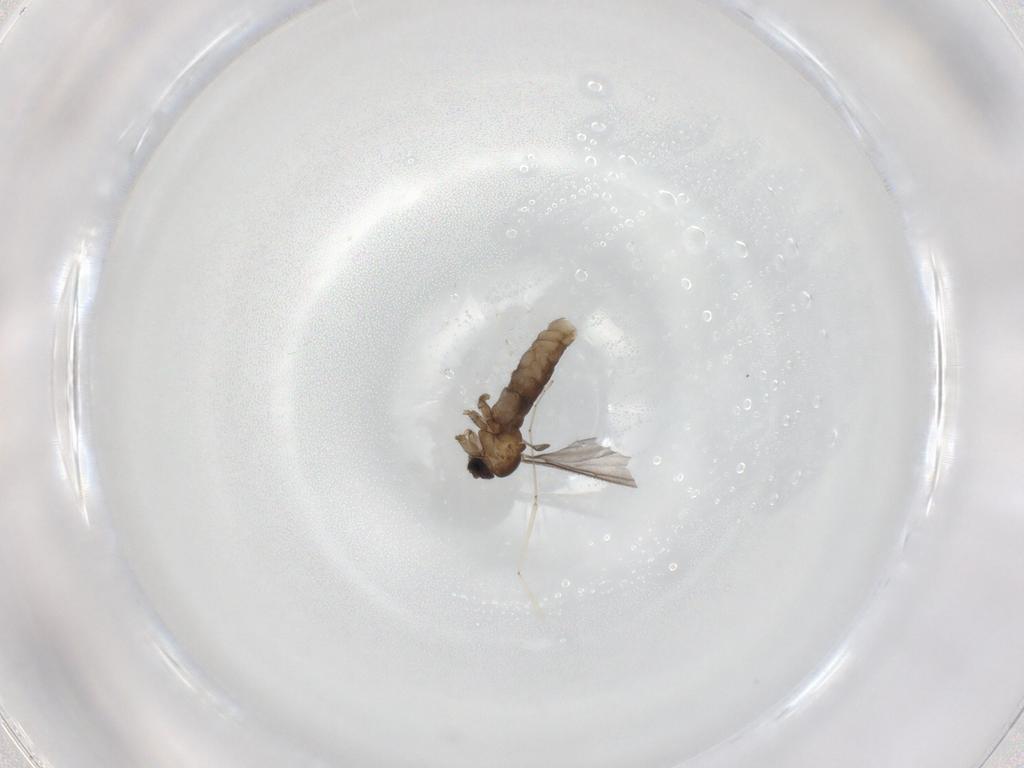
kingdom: Animalia
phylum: Arthropoda
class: Insecta
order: Diptera
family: Sciaridae
